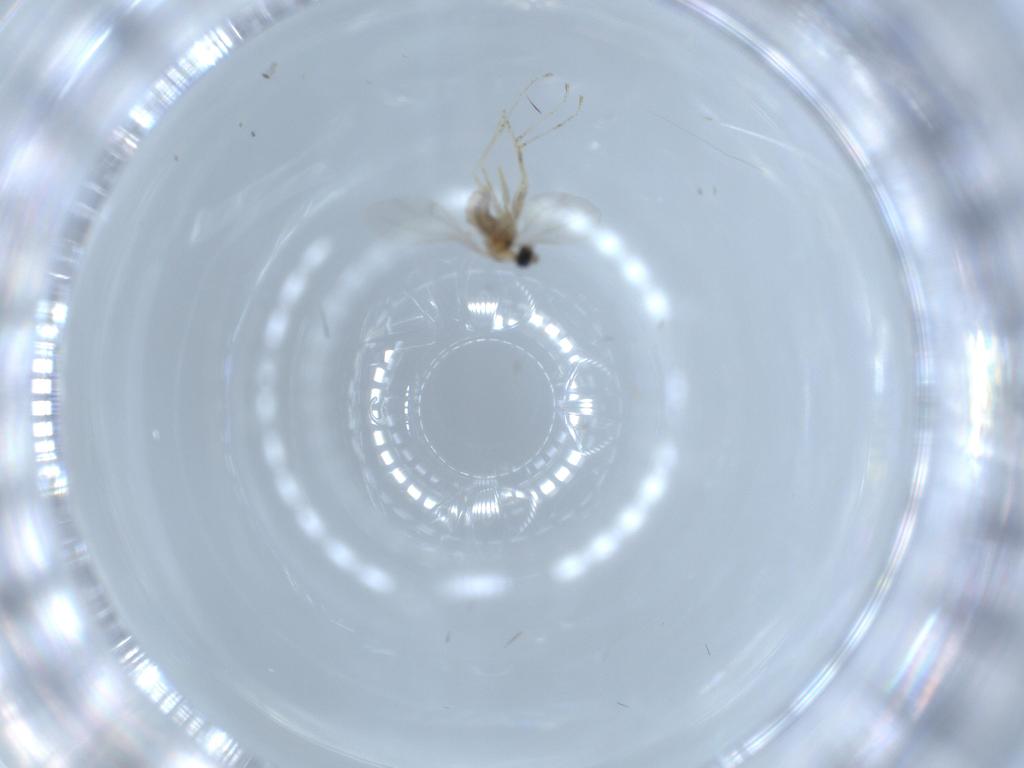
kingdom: Animalia
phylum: Arthropoda
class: Insecta
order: Diptera
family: Cecidomyiidae
